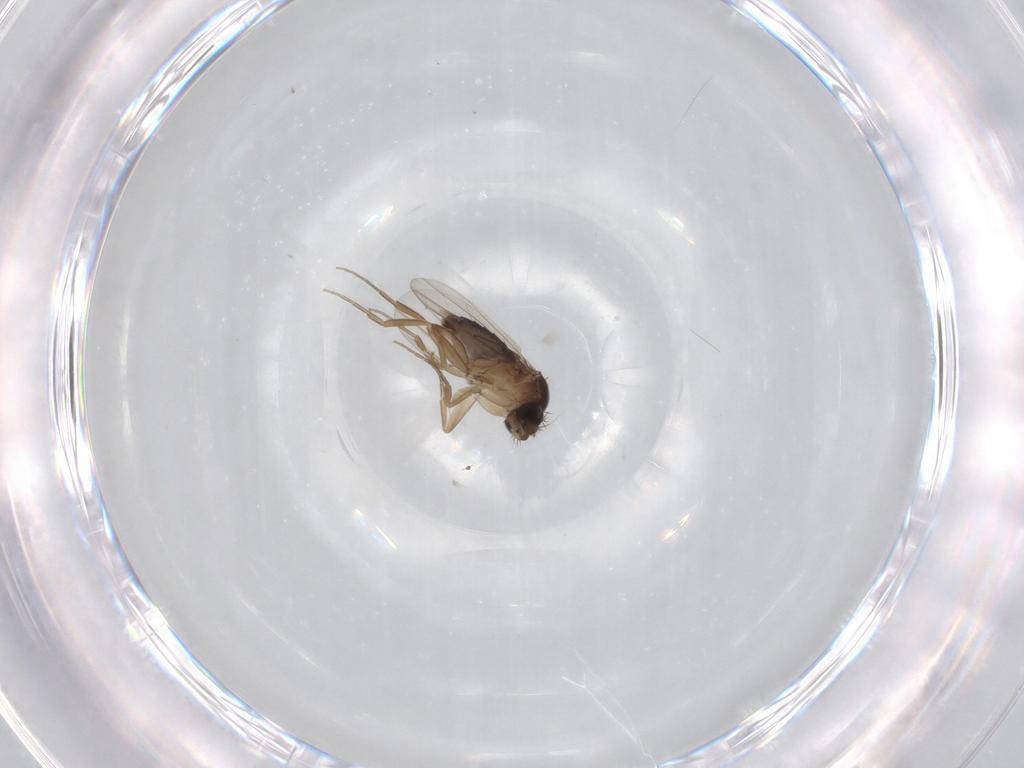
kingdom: Animalia
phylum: Arthropoda
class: Insecta
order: Diptera
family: Phoridae
